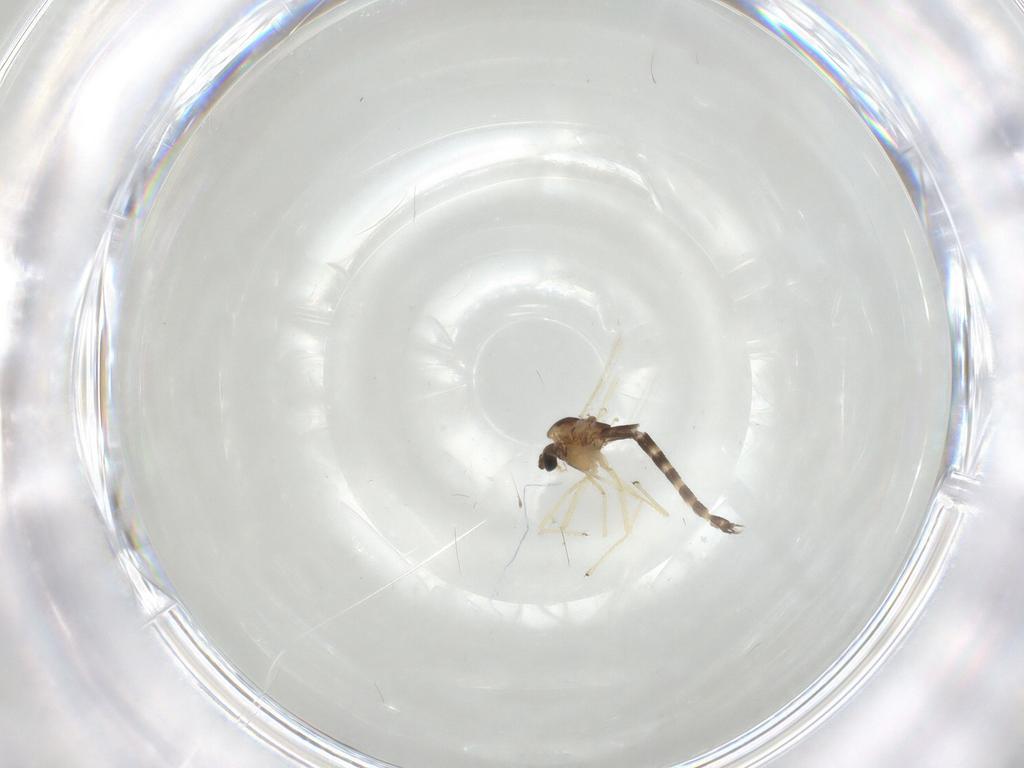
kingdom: Animalia
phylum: Arthropoda
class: Insecta
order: Diptera
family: Chironomidae
